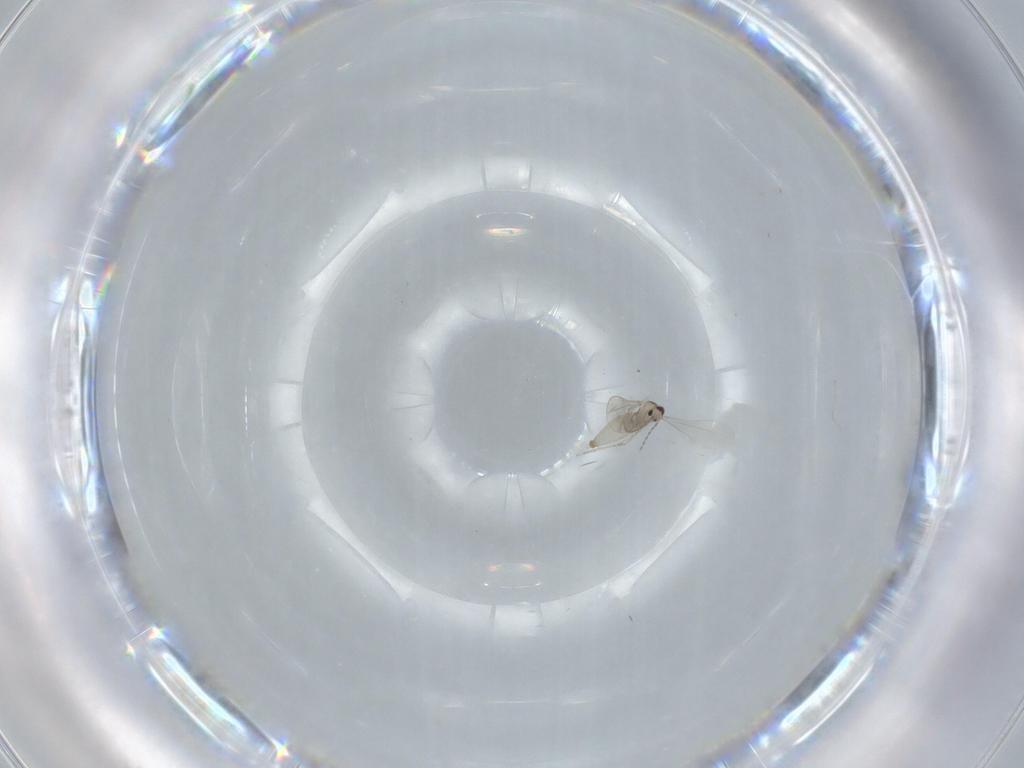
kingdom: Animalia
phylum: Arthropoda
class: Insecta
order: Diptera
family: Cecidomyiidae
